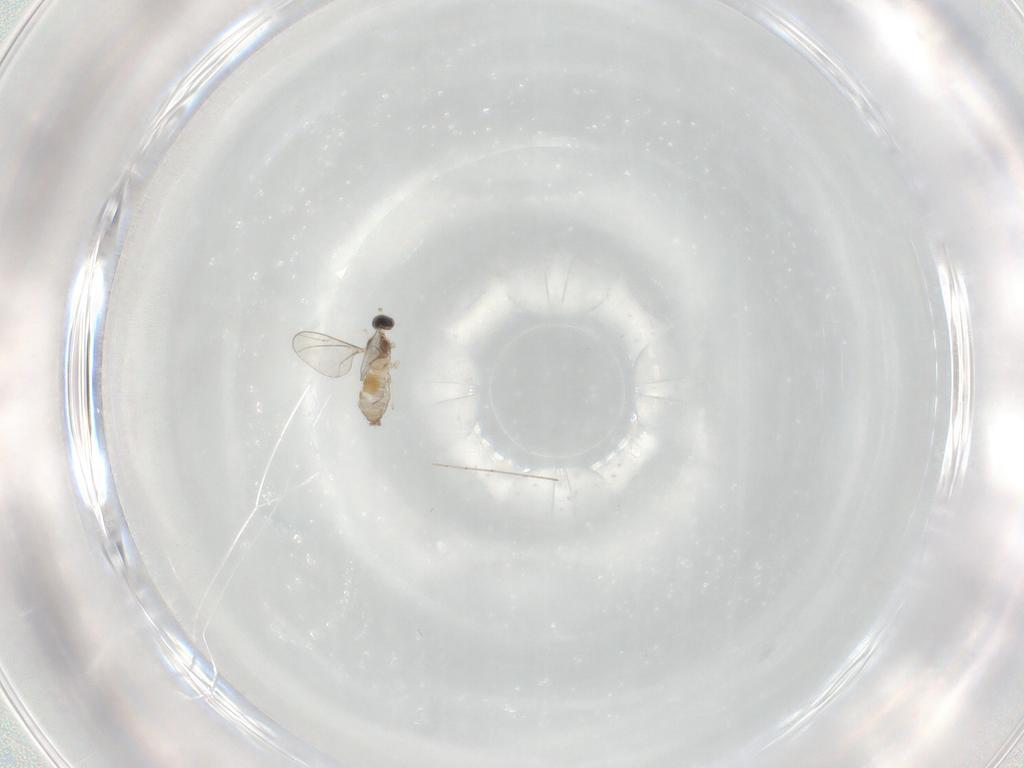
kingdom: Animalia
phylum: Arthropoda
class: Insecta
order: Diptera
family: Cecidomyiidae
